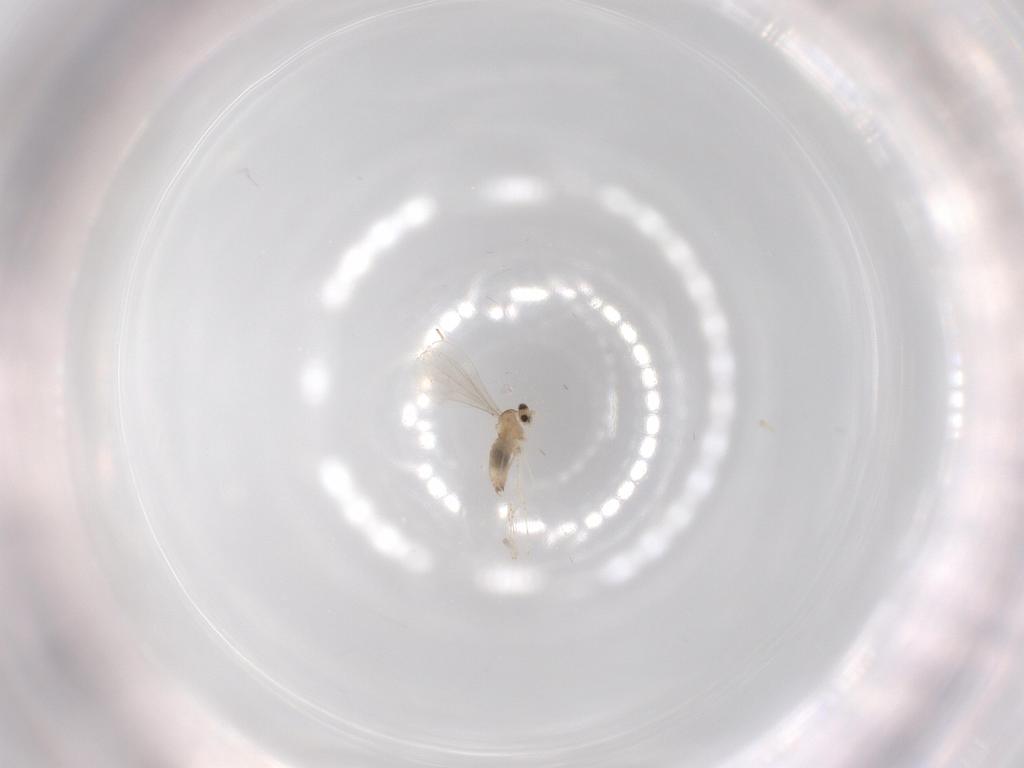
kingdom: Animalia
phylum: Arthropoda
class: Insecta
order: Diptera
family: Cecidomyiidae
